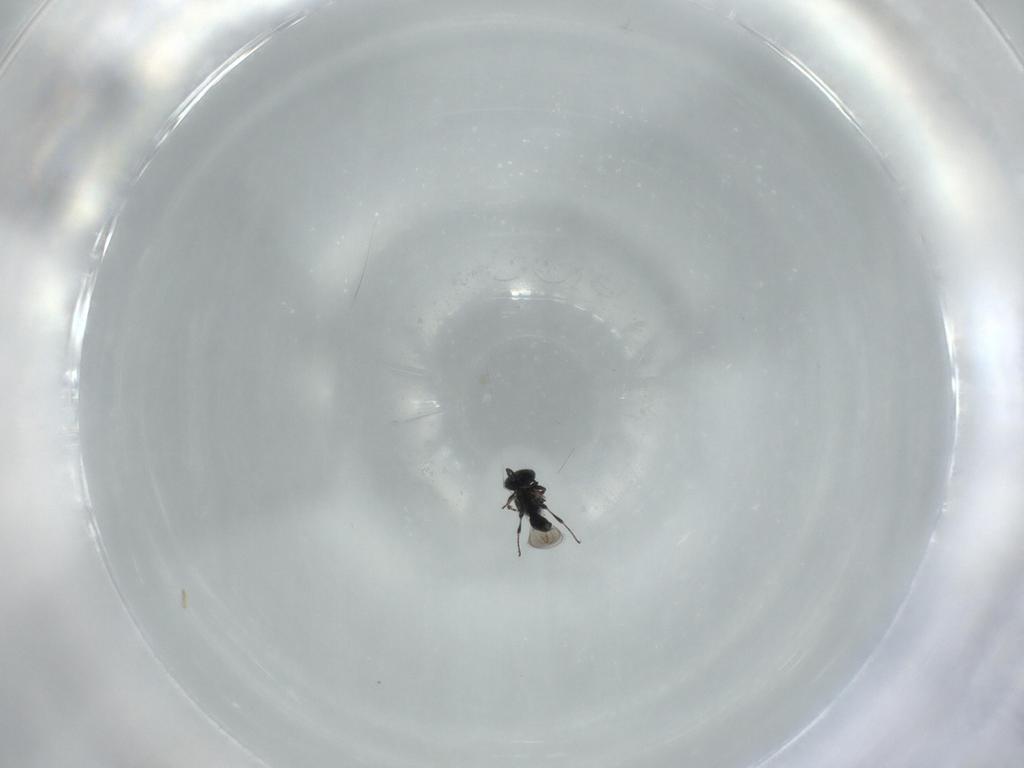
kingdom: Animalia
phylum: Arthropoda
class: Insecta
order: Hymenoptera
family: Platygastridae
